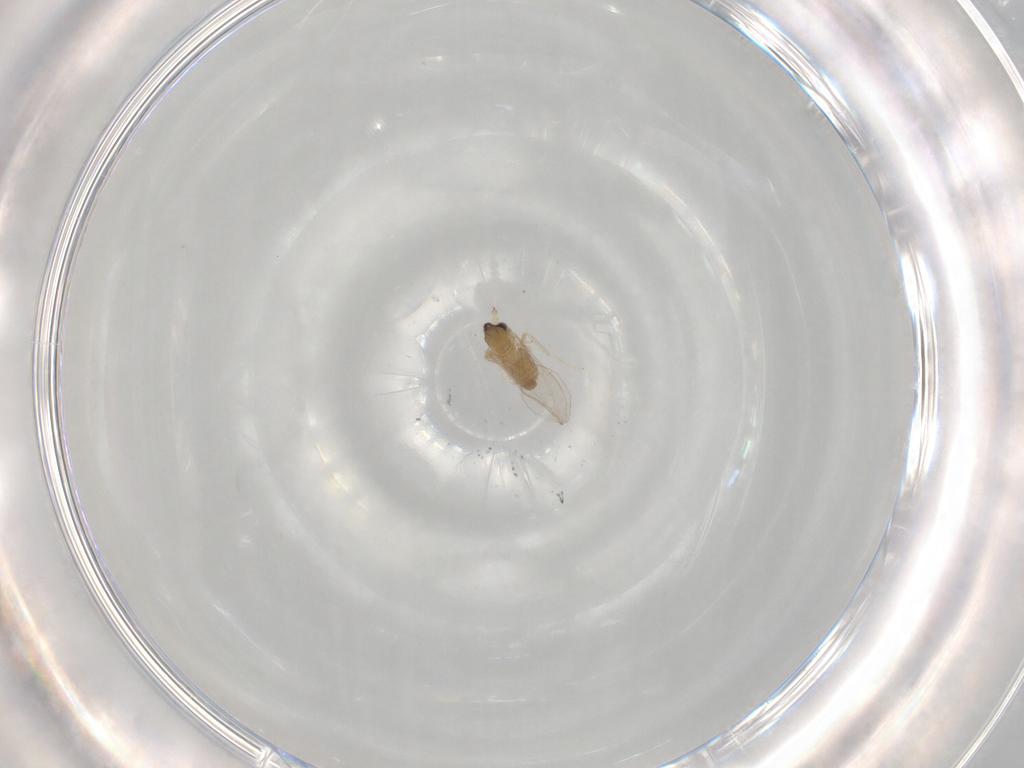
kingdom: Animalia
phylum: Arthropoda
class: Insecta
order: Diptera
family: Cecidomyiidae
